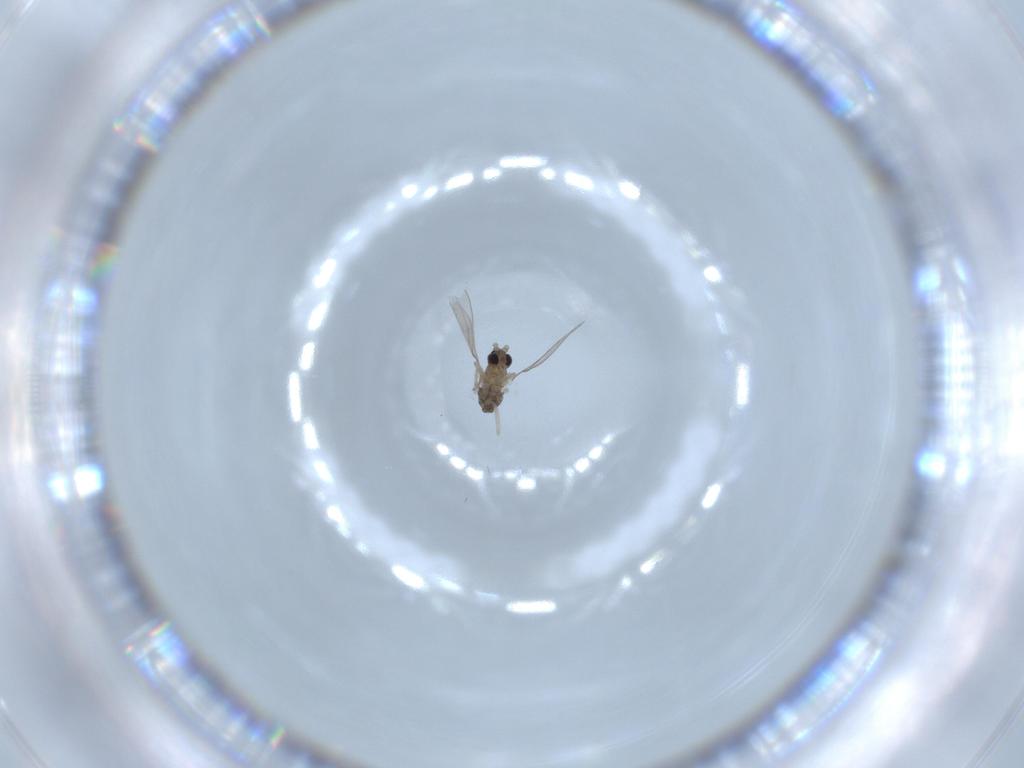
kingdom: Animalia
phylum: Arthropoda
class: Insecta
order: Diptera
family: Cecidomyiidae
